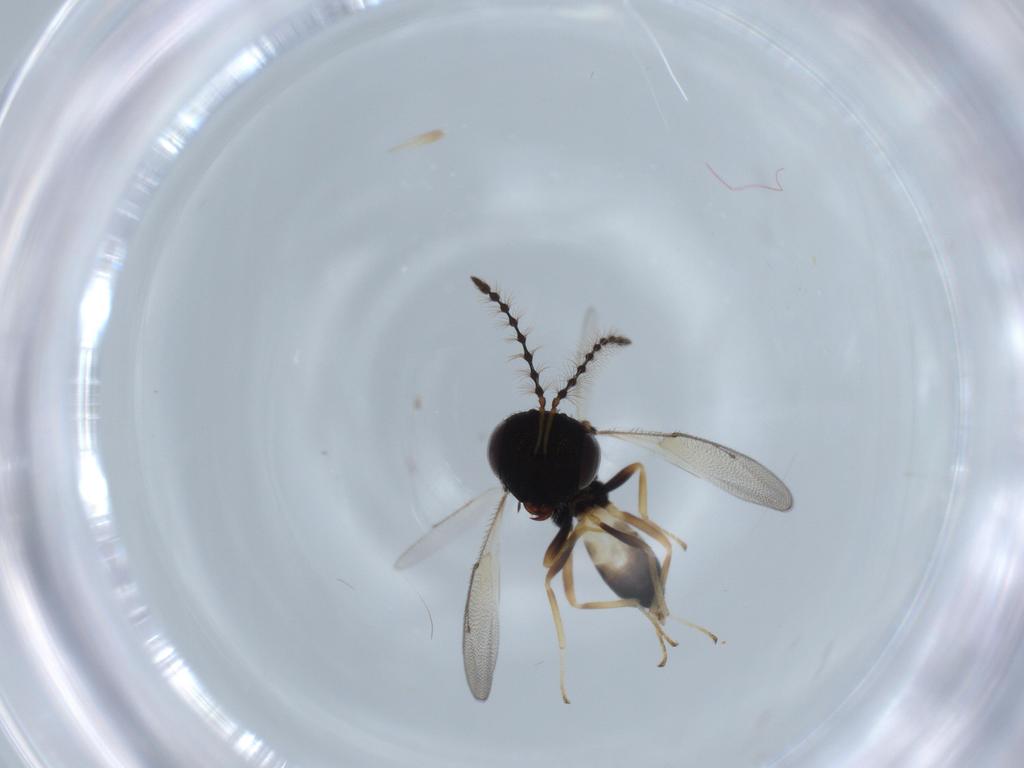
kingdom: Animalia
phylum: Arthropoda
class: Insecta
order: Hymenoptera
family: Pteromalidae
